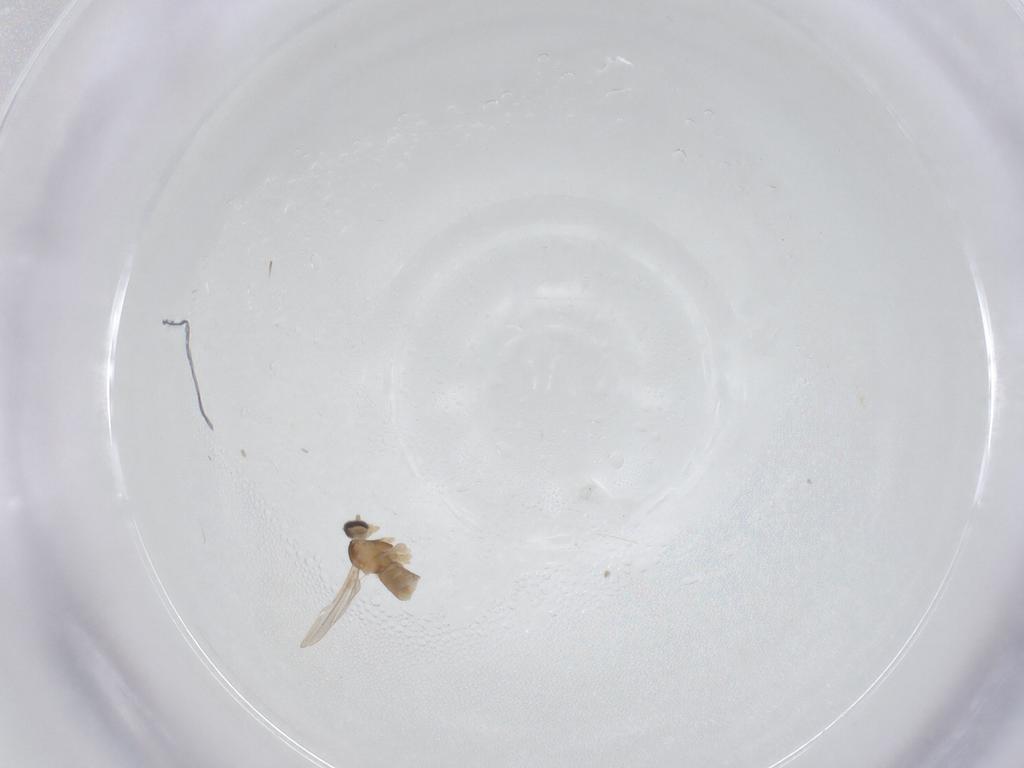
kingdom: Animalia
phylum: Arthropoda
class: Insecta
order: Diptera
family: Cecidomyiidae
